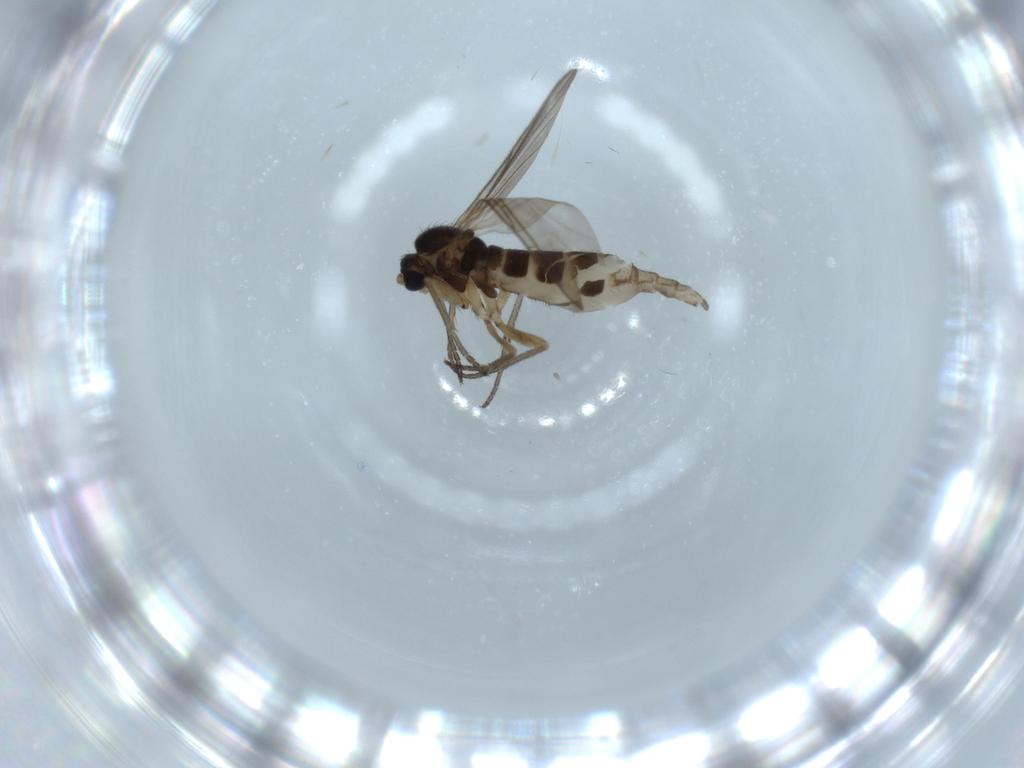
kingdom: Animalia
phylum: Arthropoda
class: Insecta
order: Diptera
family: Sciaridae
